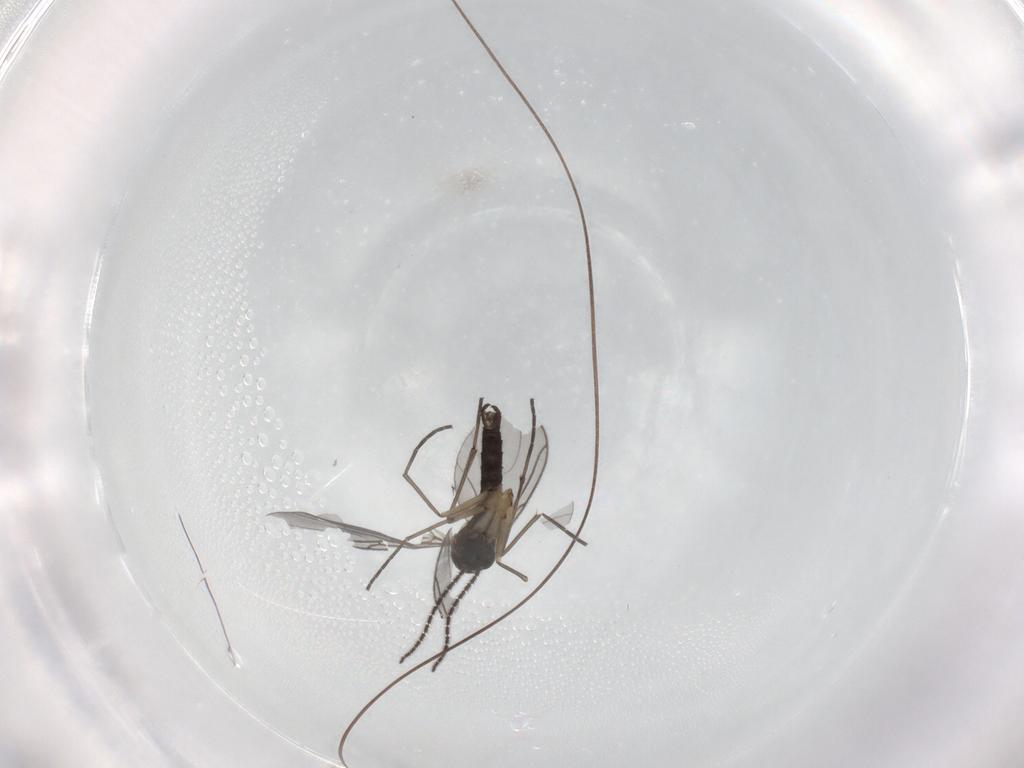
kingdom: Animalia
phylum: Arthropoda
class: Insecta
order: Diptera
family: Sciaridae
